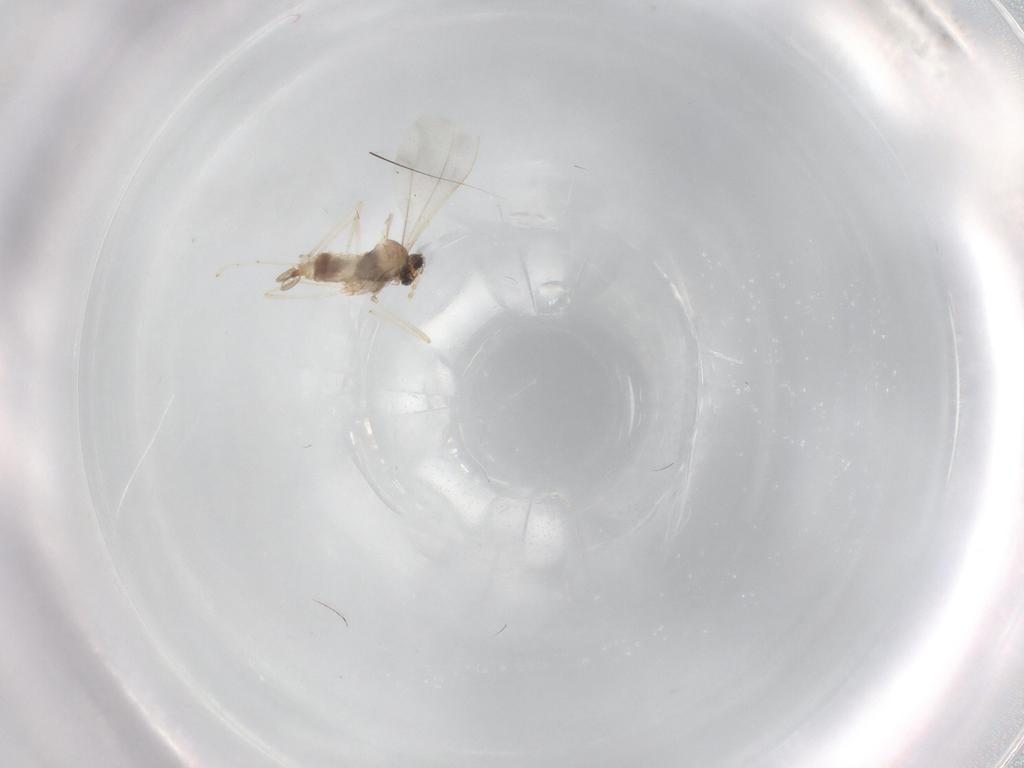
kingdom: Animalia
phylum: Arthropoda
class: Insecta
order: Diptera
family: Cecidomyiidae
